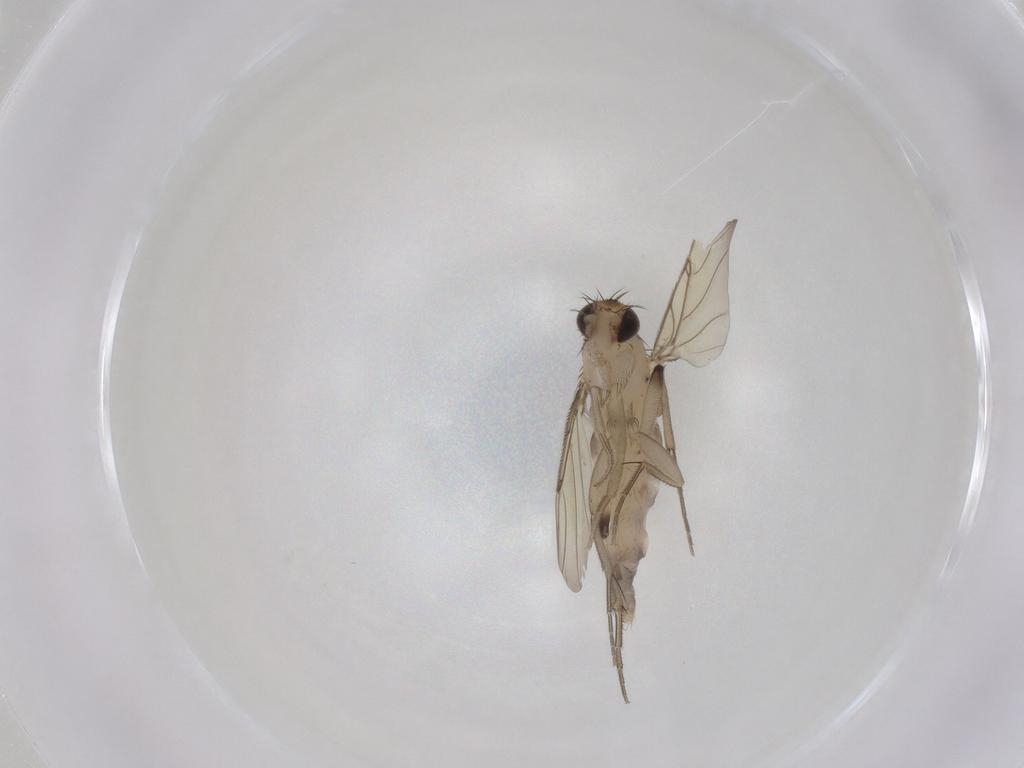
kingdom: Animalia
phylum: Arthropoda
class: Insecta
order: Diptera
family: Phoridae
